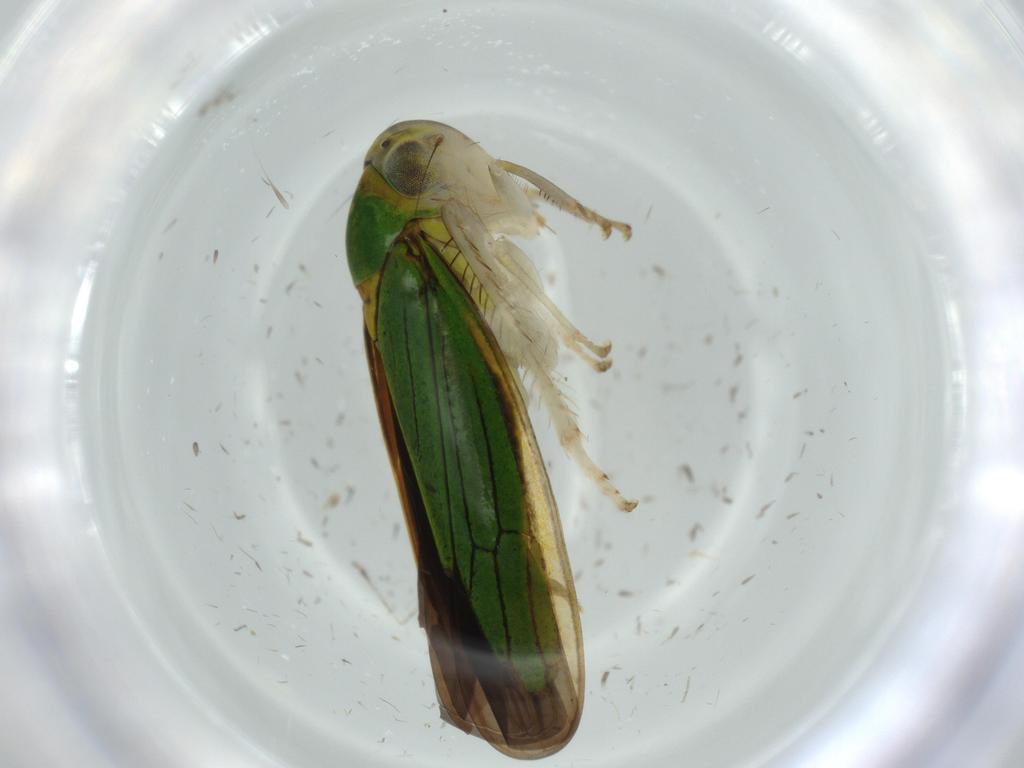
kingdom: Animalia
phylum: Arthropoda
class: Insecta
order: Hemiptera
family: Cicadellidae
